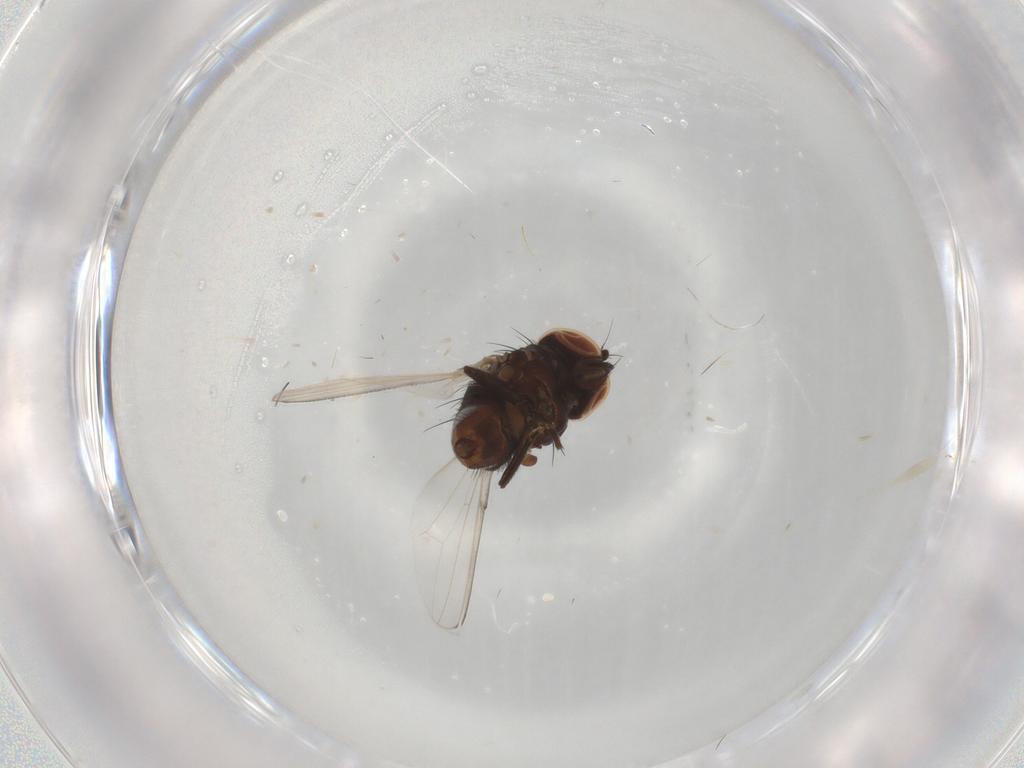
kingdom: Animalia
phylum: Arthropoda
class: Insecta
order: Diptera
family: Milichiidae
